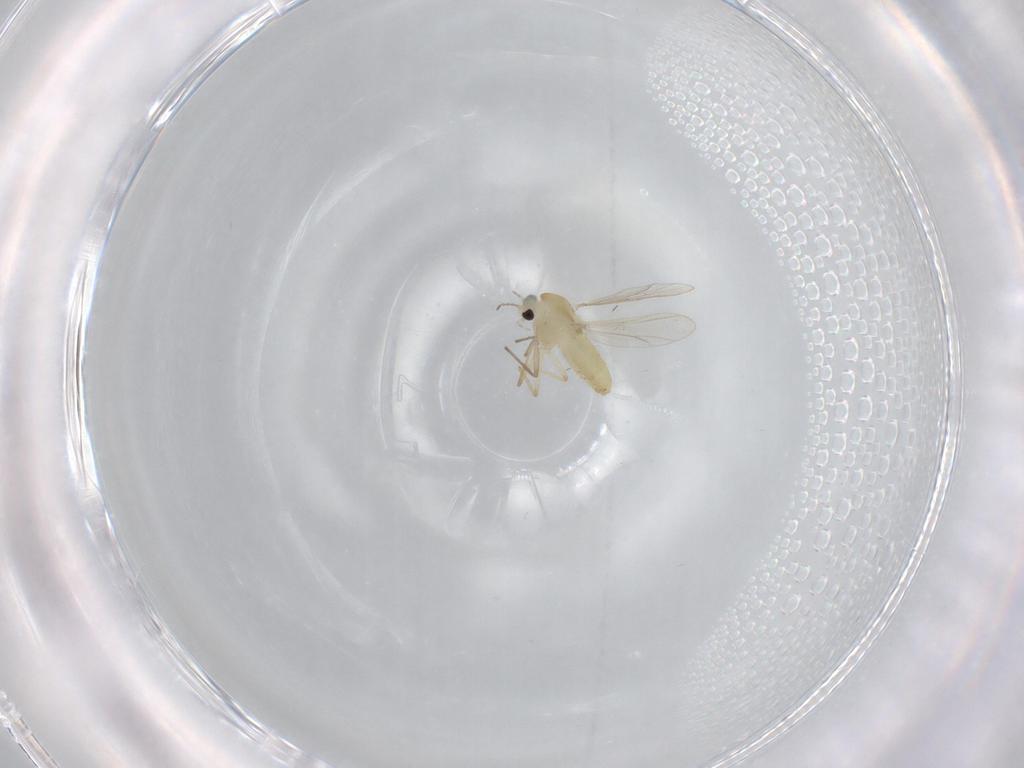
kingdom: Animalia
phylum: Arthropoda
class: Insecta
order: Diptera
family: Chironomidae
